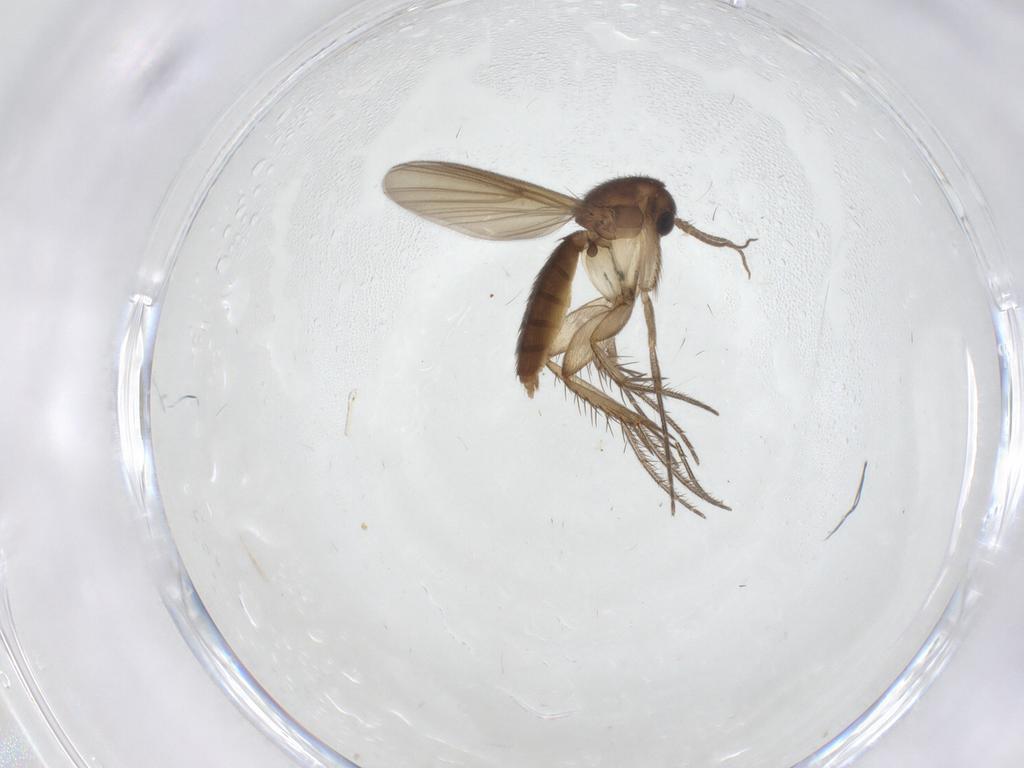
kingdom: Animalia
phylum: Arthropoda
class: Insecta
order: Diptera
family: Mycetophilidae
